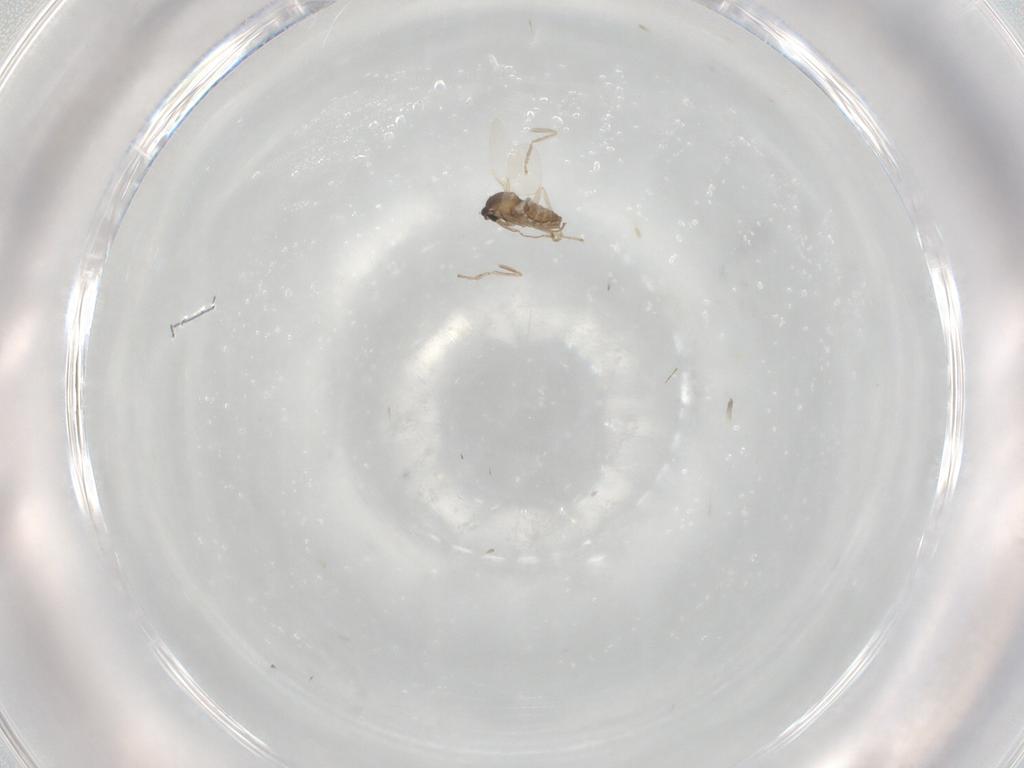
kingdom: Animalia
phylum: Arthropoda
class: Insecta
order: Diptera
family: Cecidomyiidae
